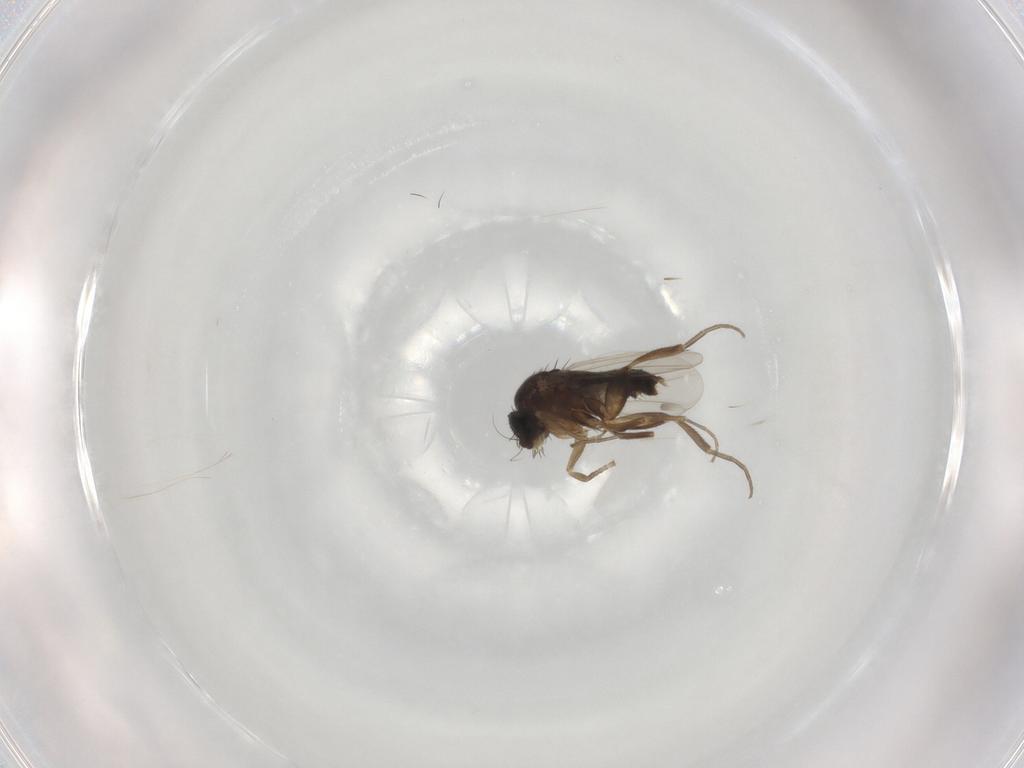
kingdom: Animalia
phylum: Arthropoda
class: Insecta
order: Diptera
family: Phoridae
